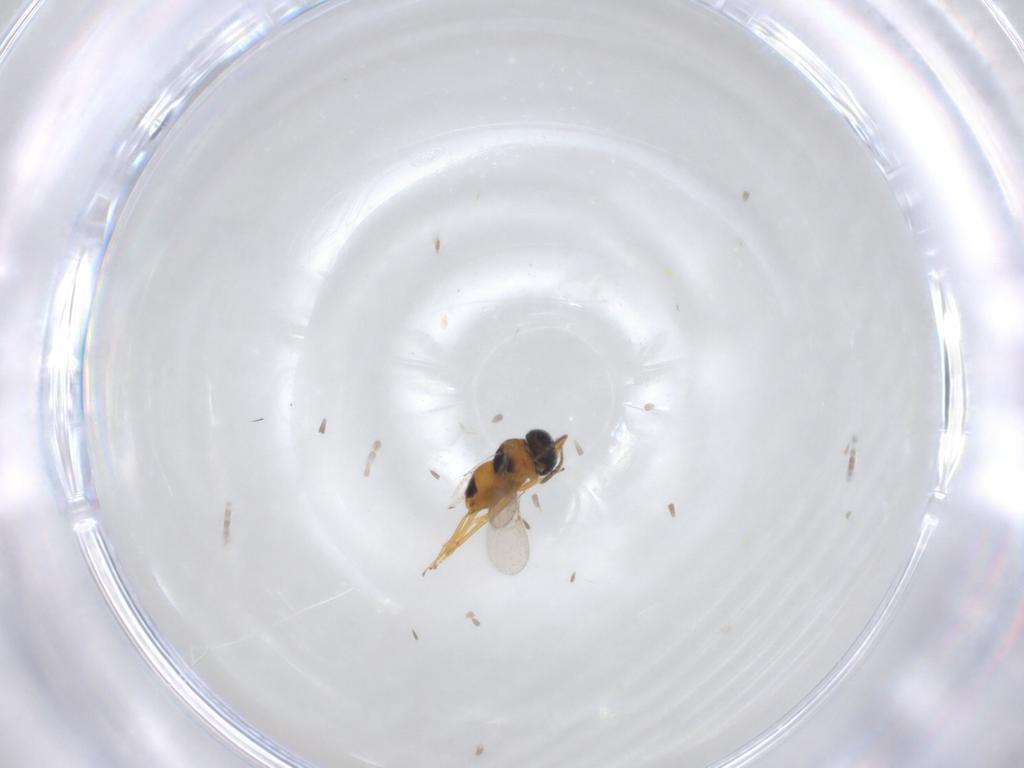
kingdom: Animalia
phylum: Arthropoda
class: Insecta
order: Hymenoptera
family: Encyrtidae
